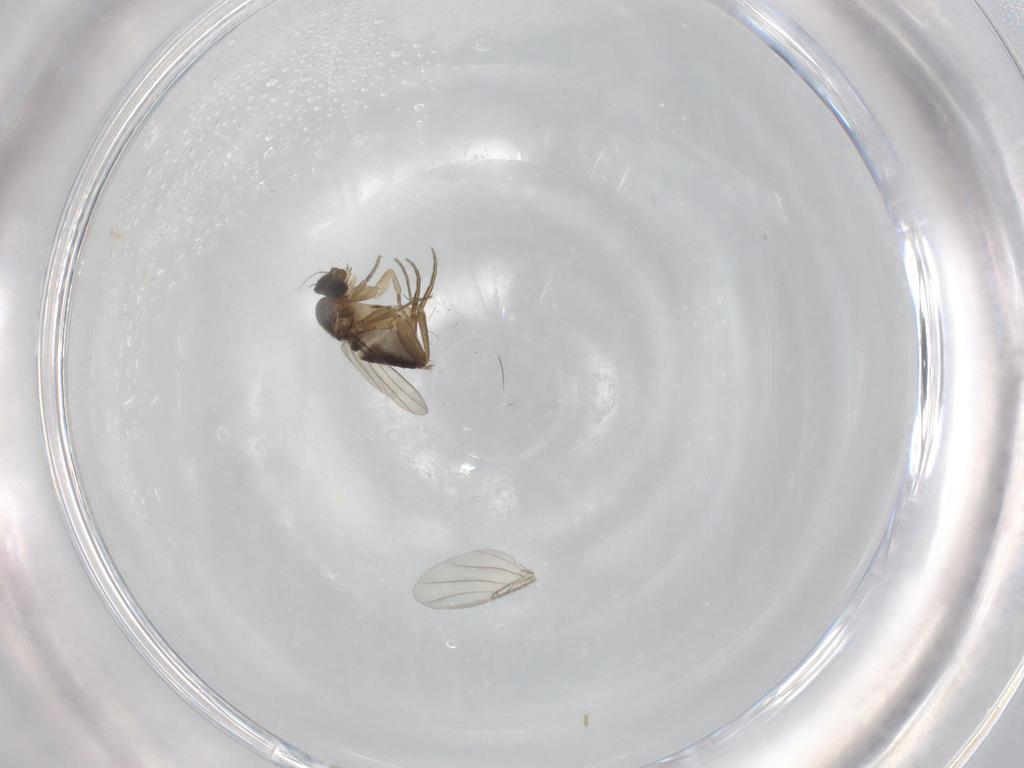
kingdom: Animalia
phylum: Arthropoda
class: Insecta
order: Diptera
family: Phoridae
